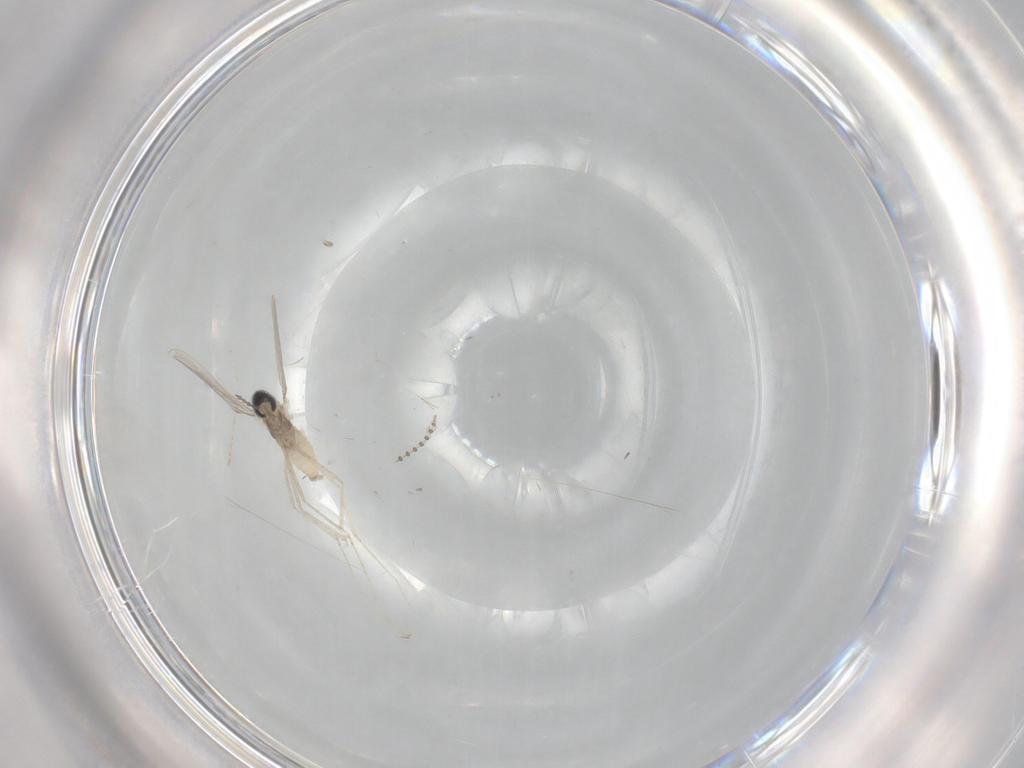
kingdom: Animalia
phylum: Arthropoda
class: Insecta
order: Diptera
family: Cecidomyiidae
